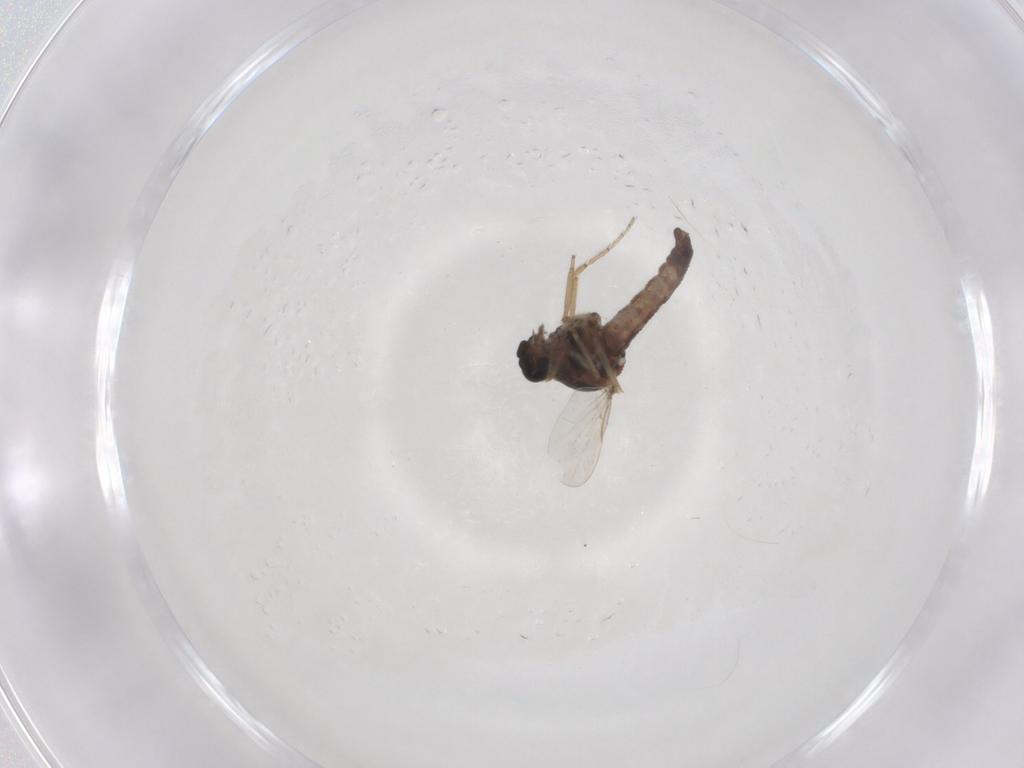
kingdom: Animalia
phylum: Arthropoda
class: Insecta
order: Diptera
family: Ceratopogonidae
